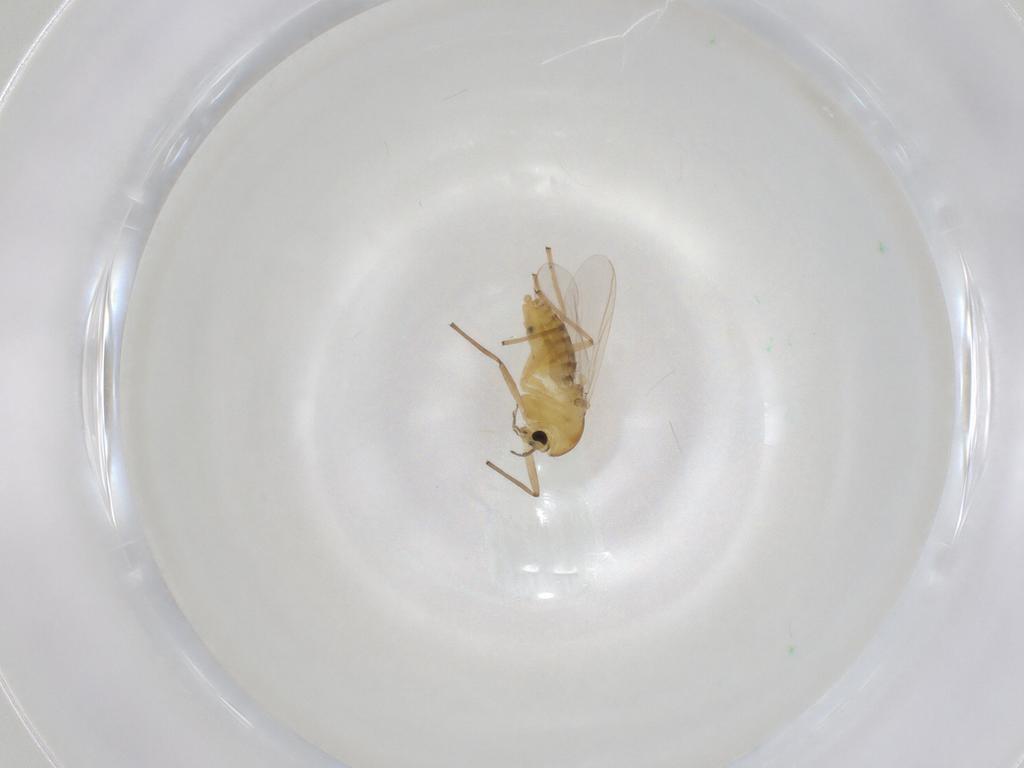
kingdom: Animalia
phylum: Arthropoda
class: Insecta
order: Diptera
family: Chironomidae
